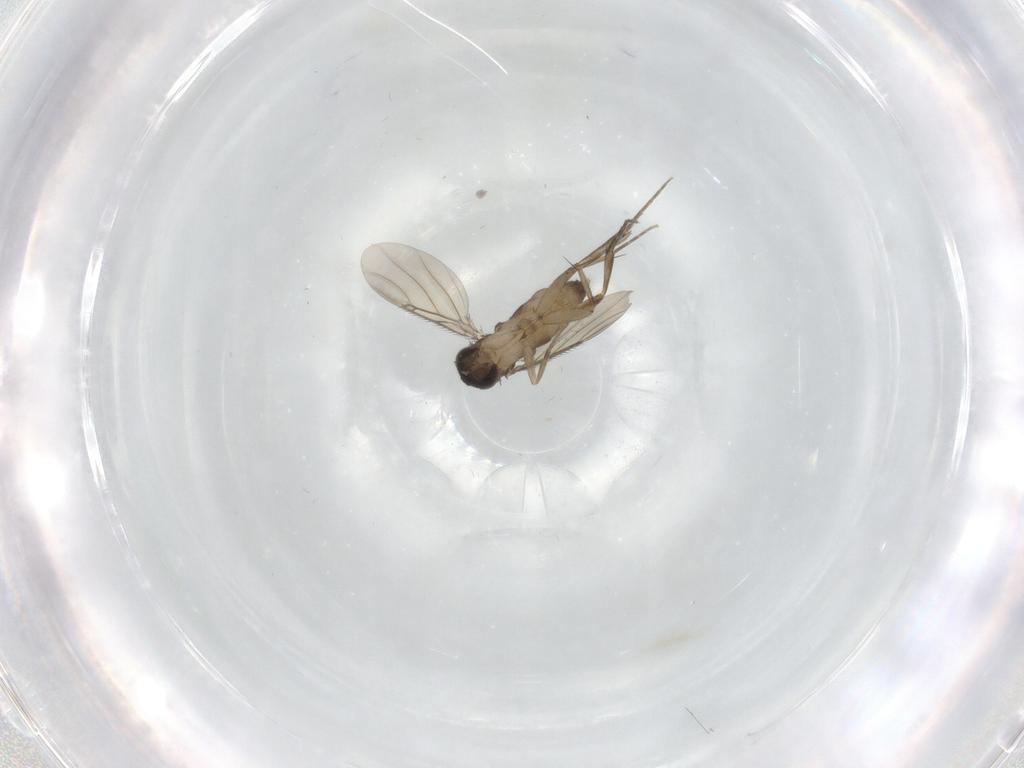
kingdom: Animalia
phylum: Arthropoda
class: Insecta
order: Diptera
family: Phoridae
